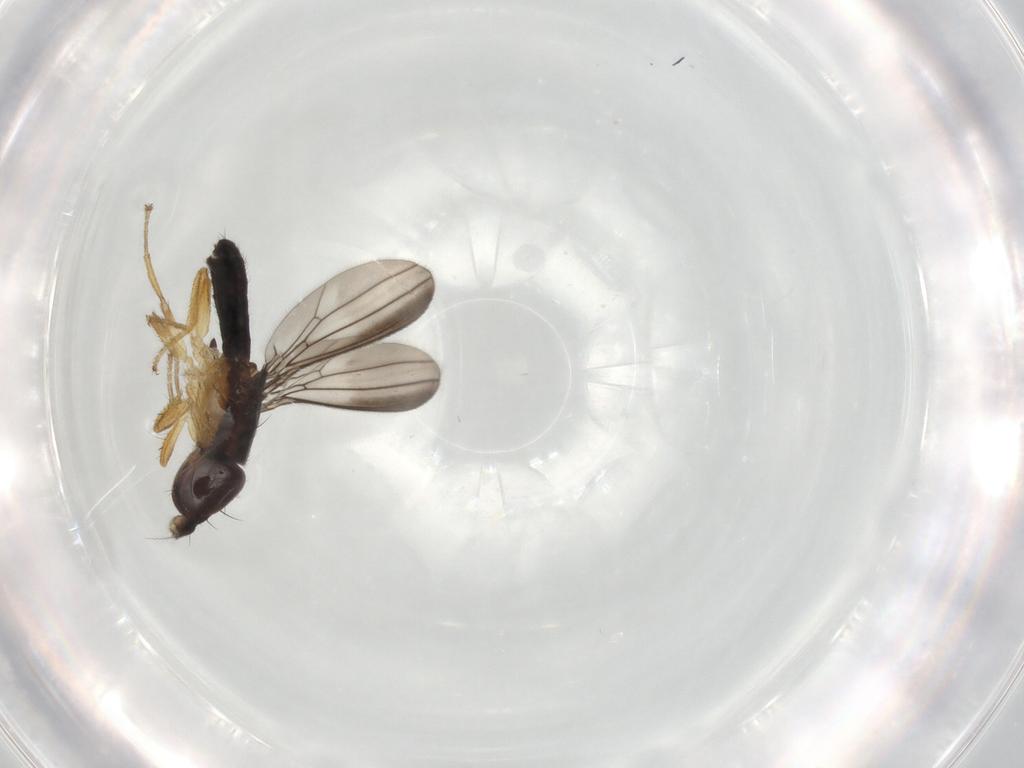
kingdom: Animalia
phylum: Arthropoda
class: Insecta
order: Diptera
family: Anthomyzidae
